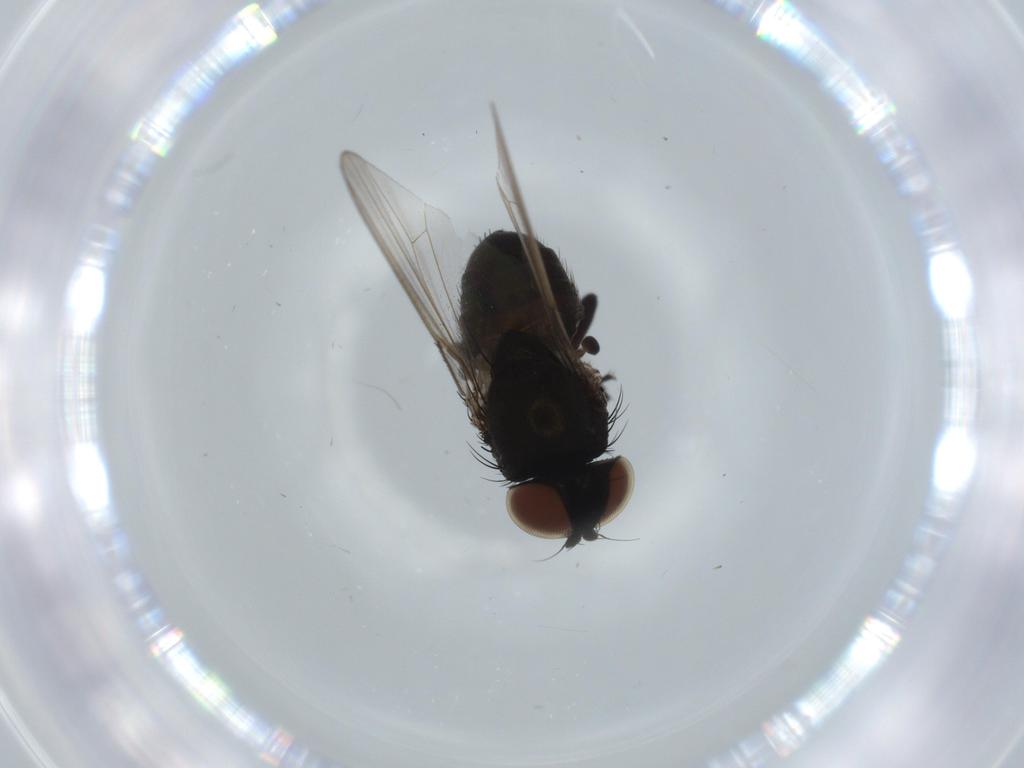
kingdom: Animalia
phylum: Arthropoda
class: Insecta
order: Diptera
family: Milichiidae
